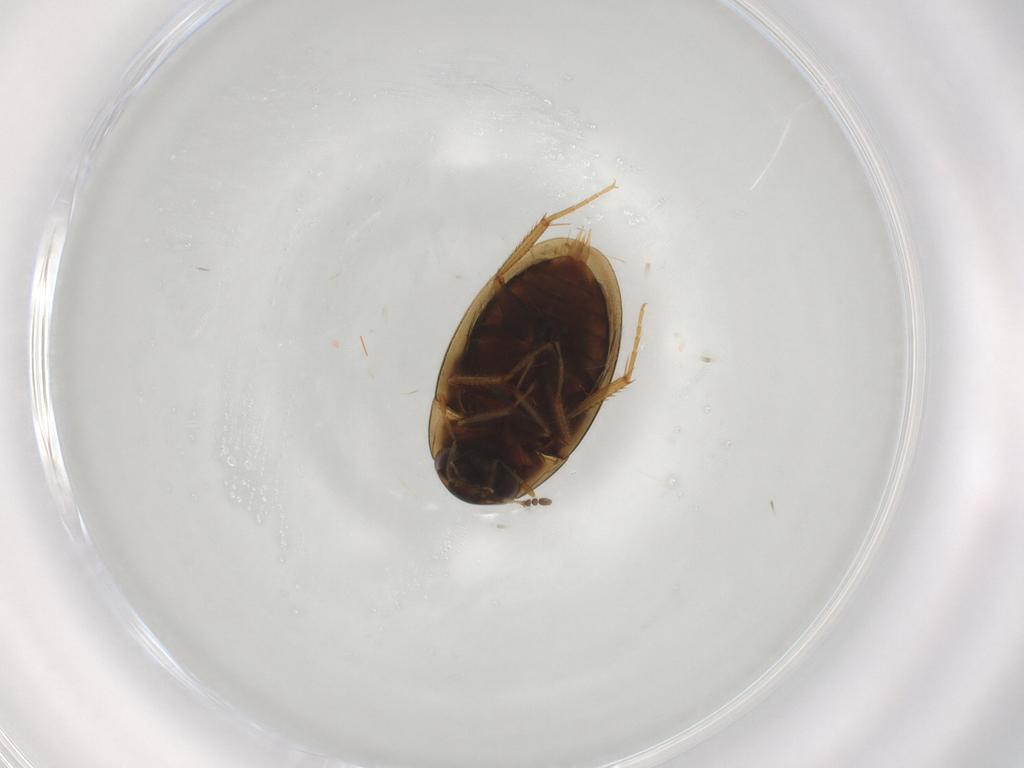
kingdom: Animalia
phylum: Arthropoda
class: Insecta
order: Coleoptera
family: Hydrophilidae
